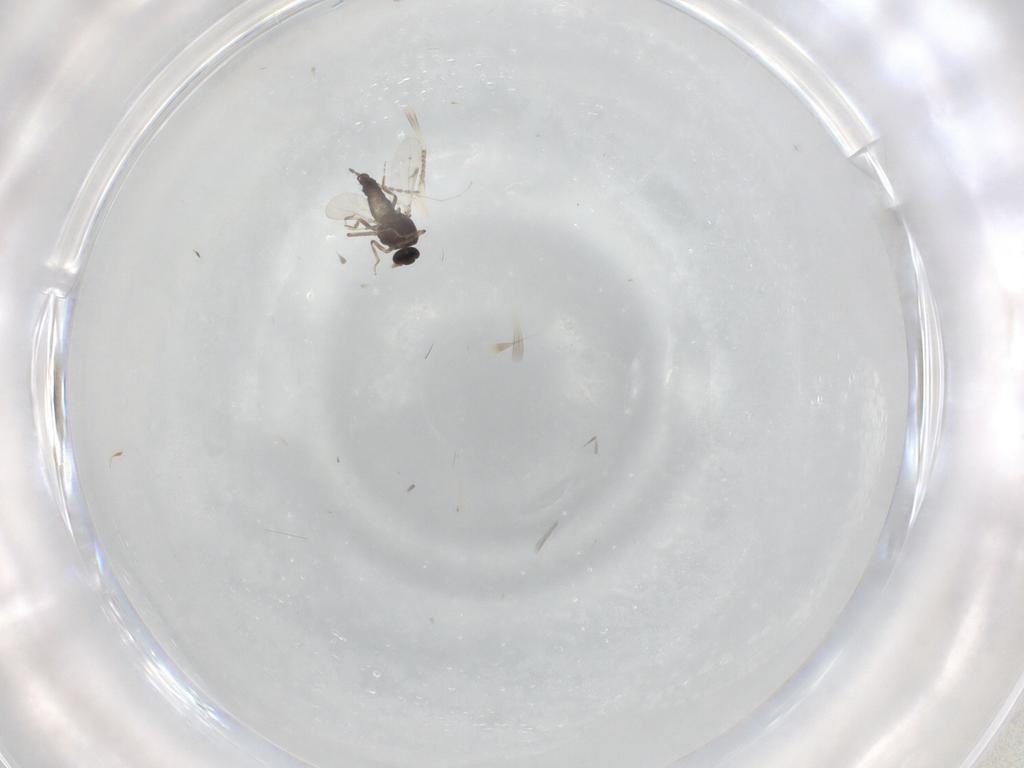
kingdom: Animalia
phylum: Arthropoda
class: Insecta
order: Diptera
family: Ceratopogonidae
